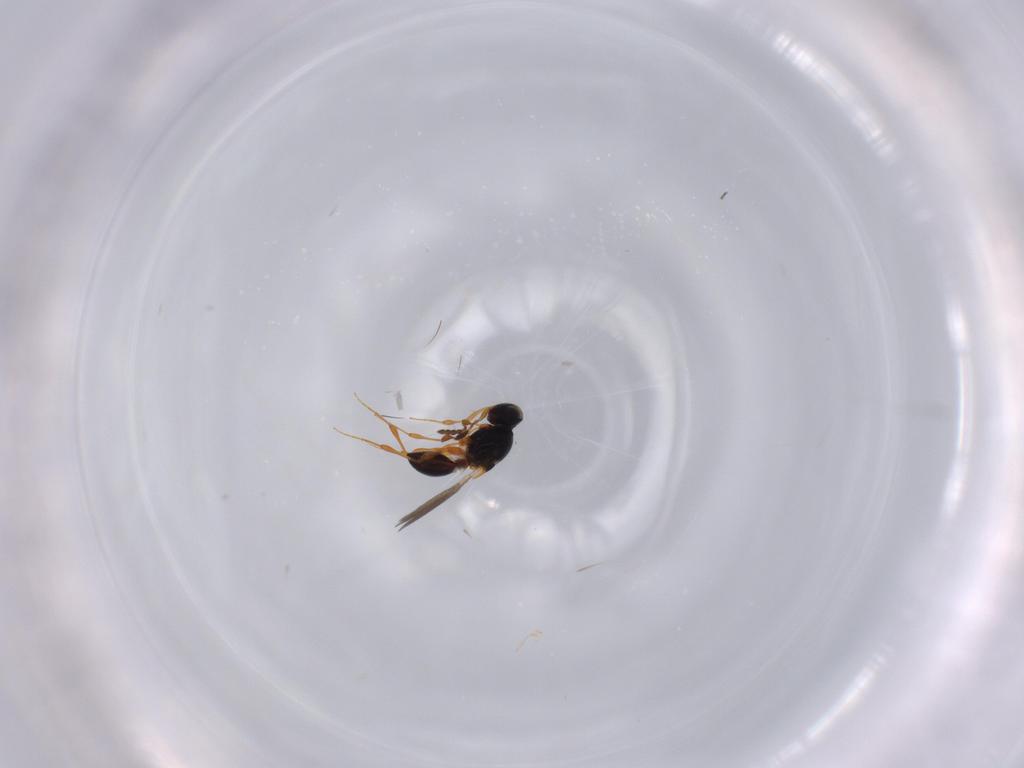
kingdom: Animalia
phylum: Arthropoda
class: Insecta
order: Hymenoptera
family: Platygastridae
